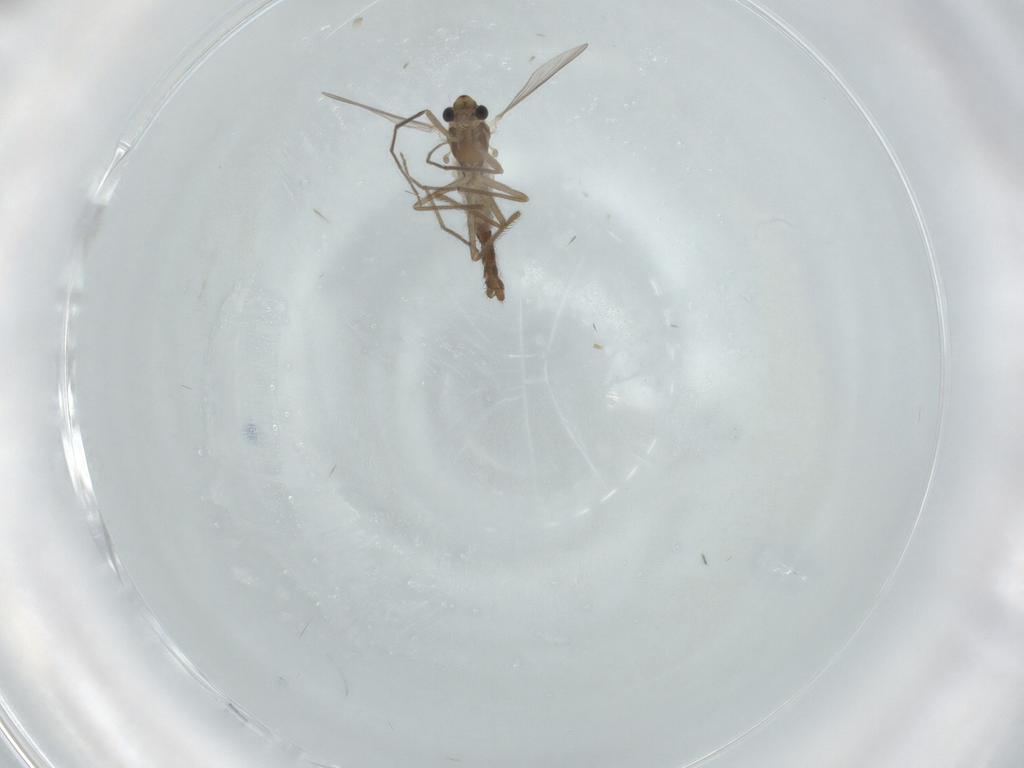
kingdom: Animalia
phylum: Arthropoda
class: Insecta
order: Diptera
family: Chironomidae
